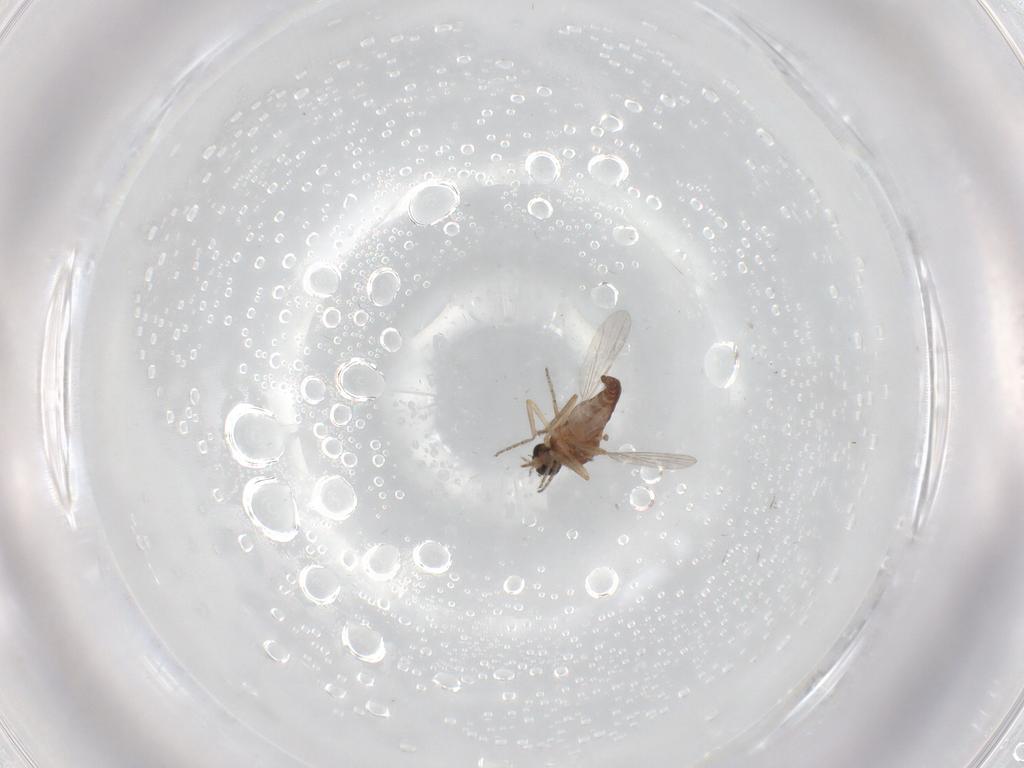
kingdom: Animalia
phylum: Arthropoda
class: Insecta
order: Diptera
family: Ceratopogonidae
